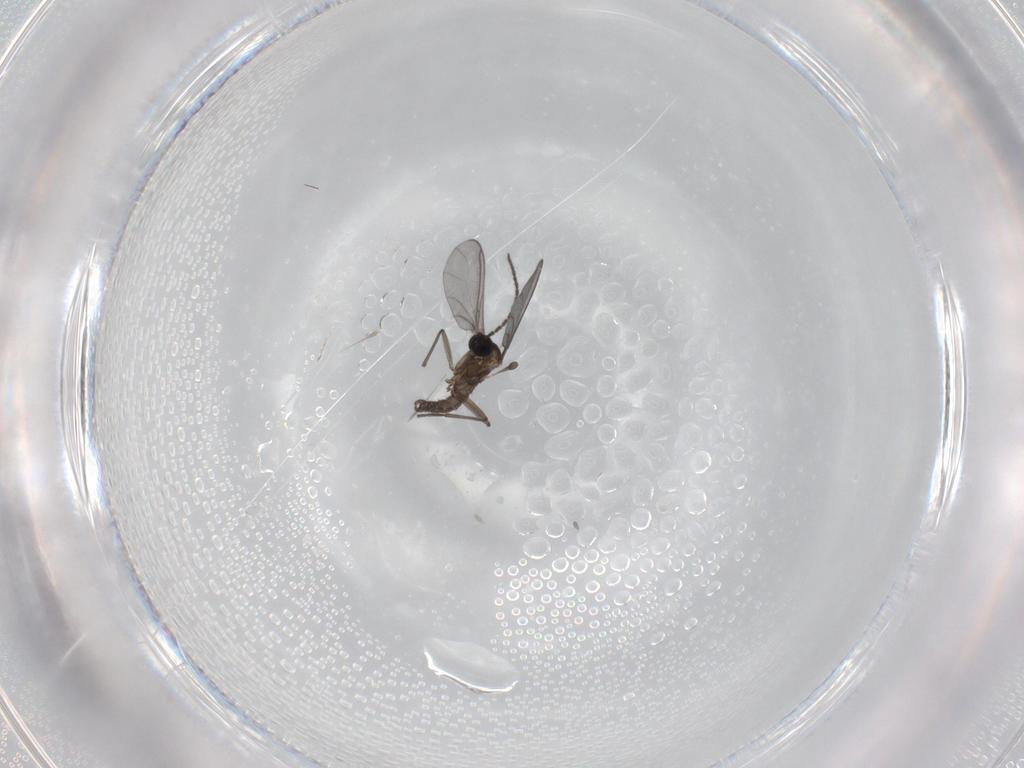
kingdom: Animalia
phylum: Arthropoda
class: Insecta
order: Diptera
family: Sciaridae
